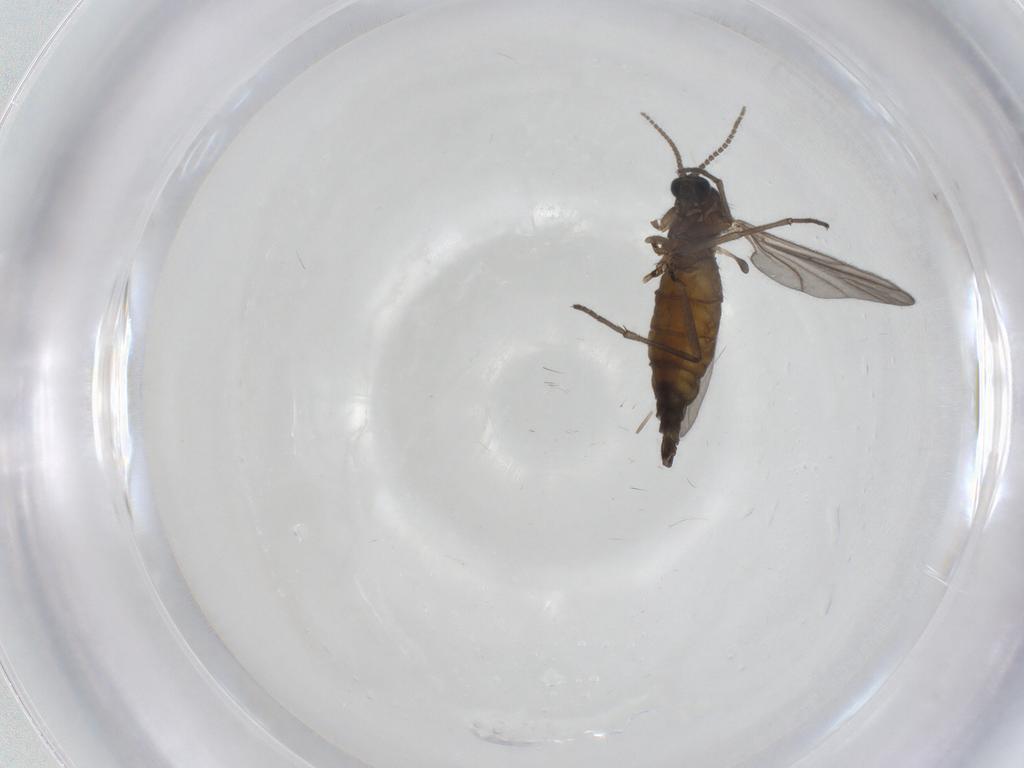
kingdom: Animalia
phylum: Arthropoda
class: Insecta
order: Diptera
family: Sciaridae
